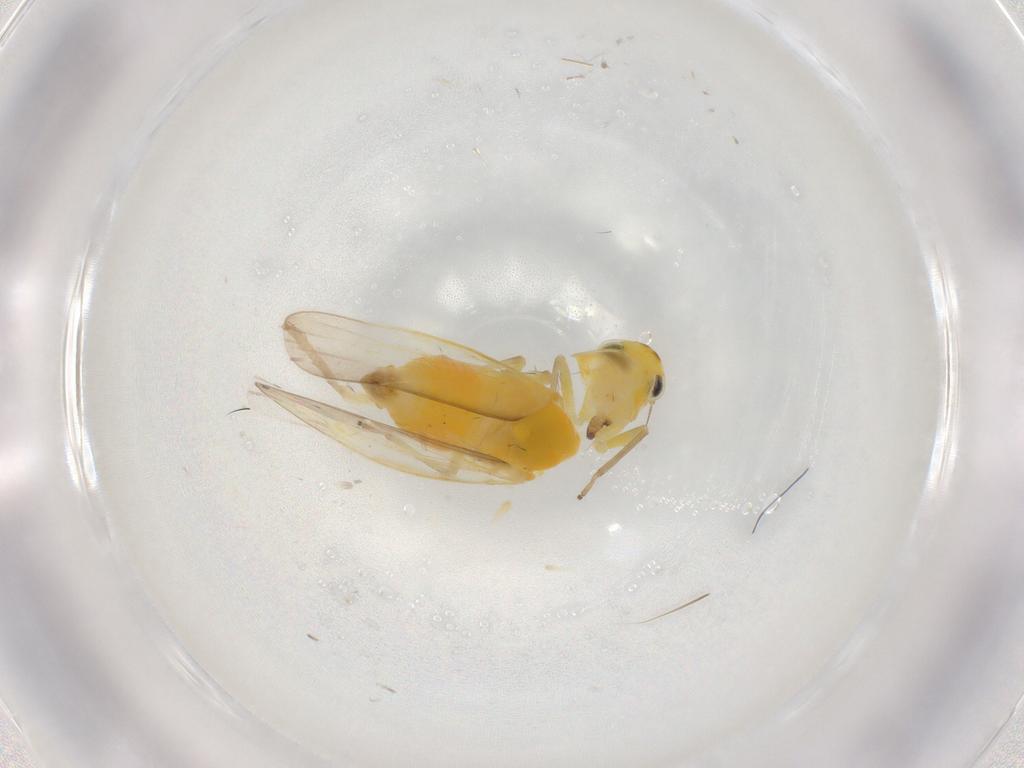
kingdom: Animalia
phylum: Arthropoda
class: Insecta
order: Hemiptera
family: Cicadellidae
